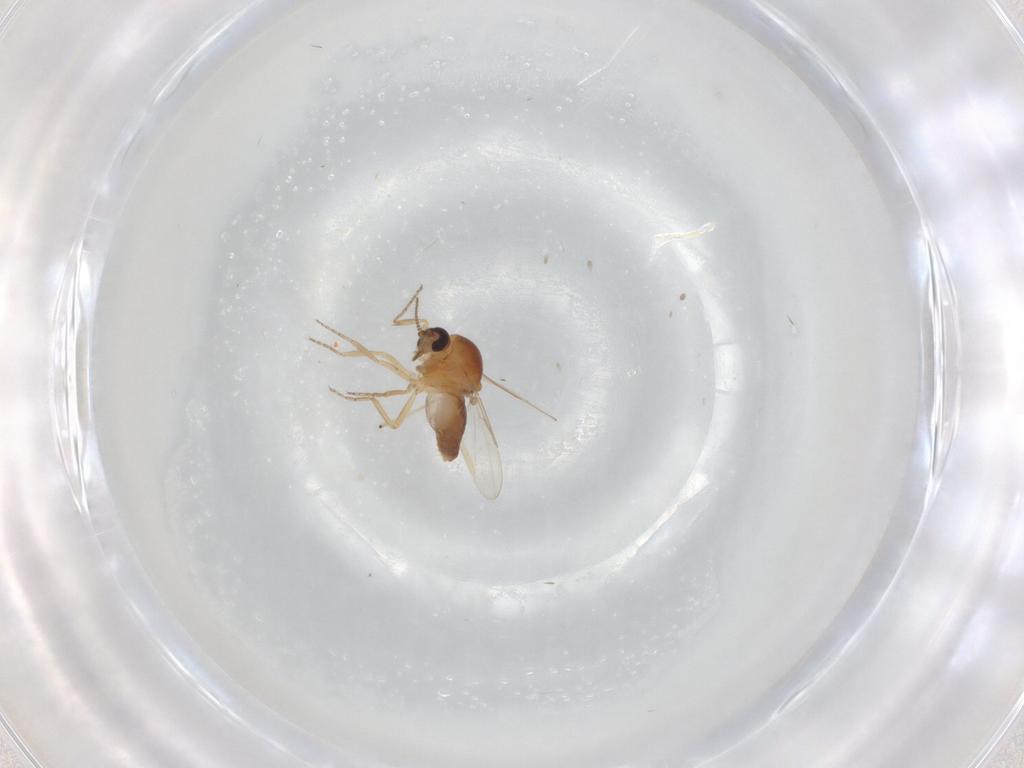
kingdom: Animalia
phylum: Arthropoda
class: Insecta
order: Diptera
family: Ceratopogonidae
